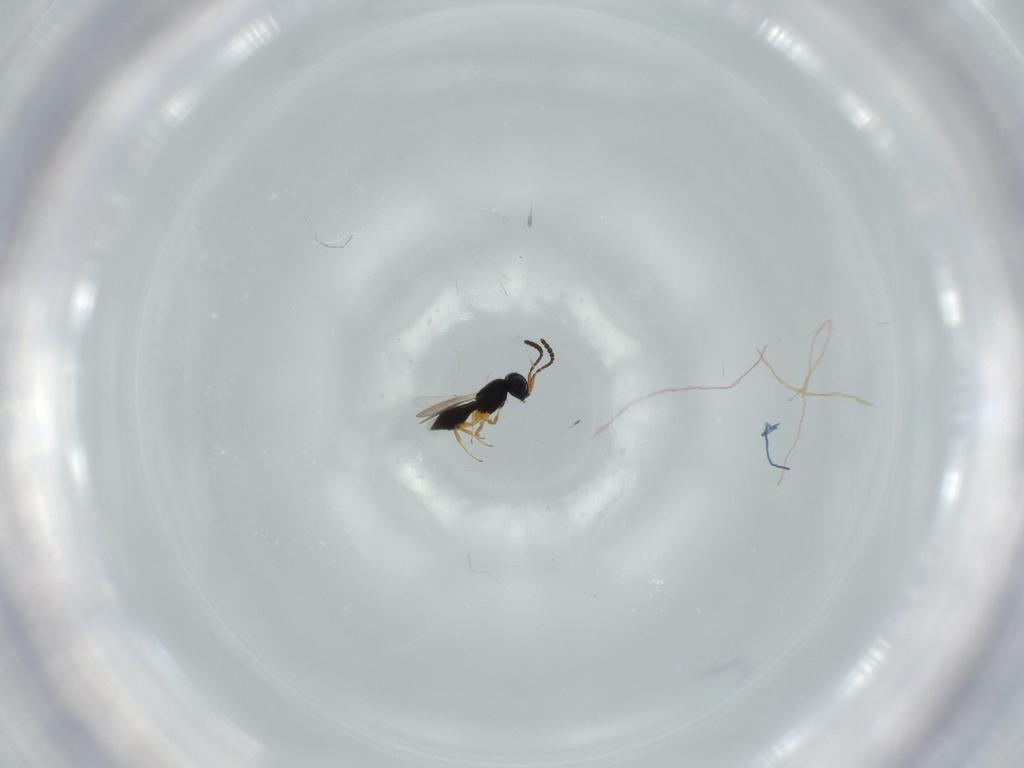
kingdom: Animalia
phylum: Arthropoda
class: Insecta
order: Hymenoptera
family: Scelionidae
